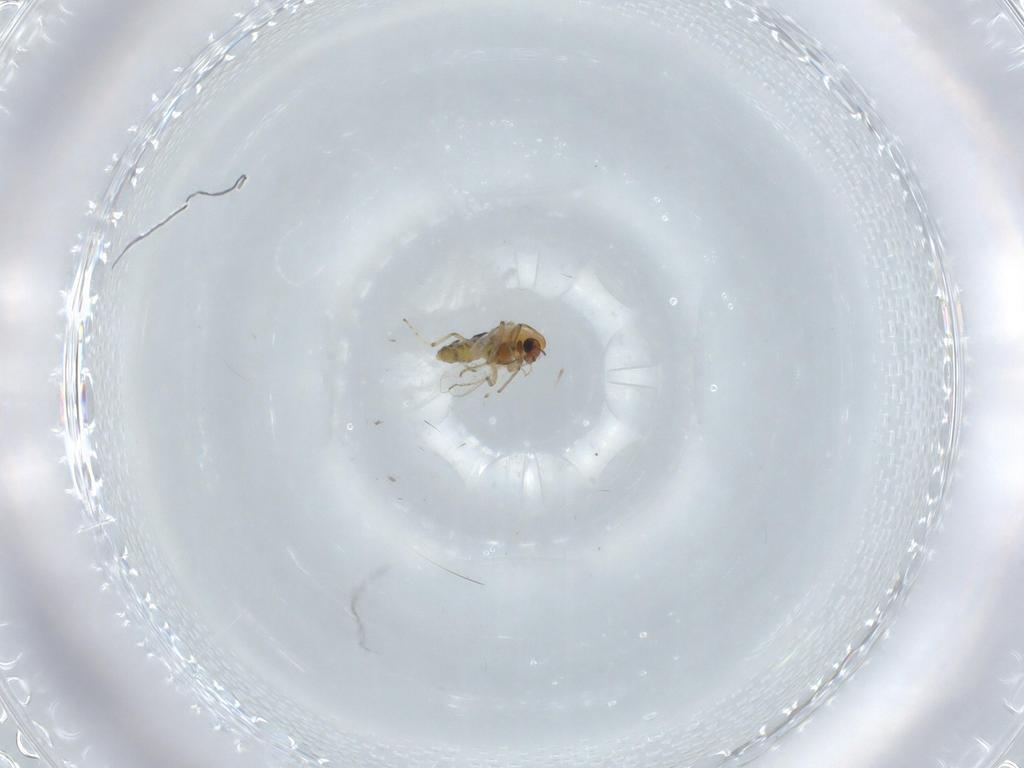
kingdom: Animalia
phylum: Arthropoda
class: Insecta
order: Diptera
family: Chironomidae
